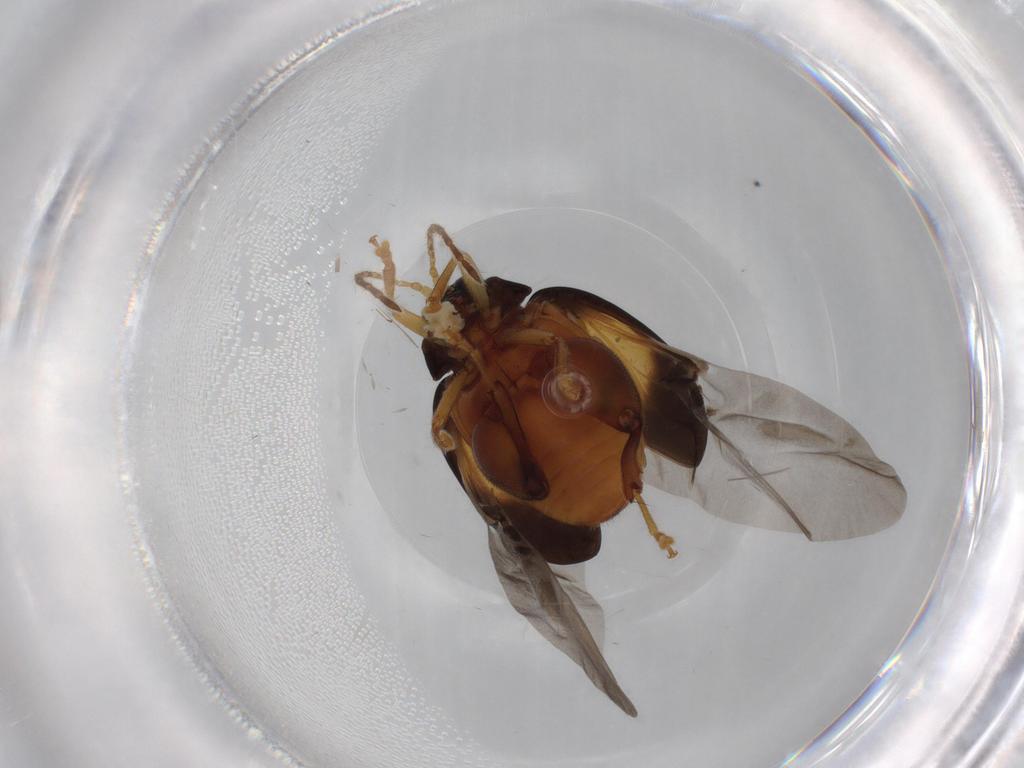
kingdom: Animalia
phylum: Arthropoda
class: Insecta
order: Coleoptera
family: Chrysomelidae
